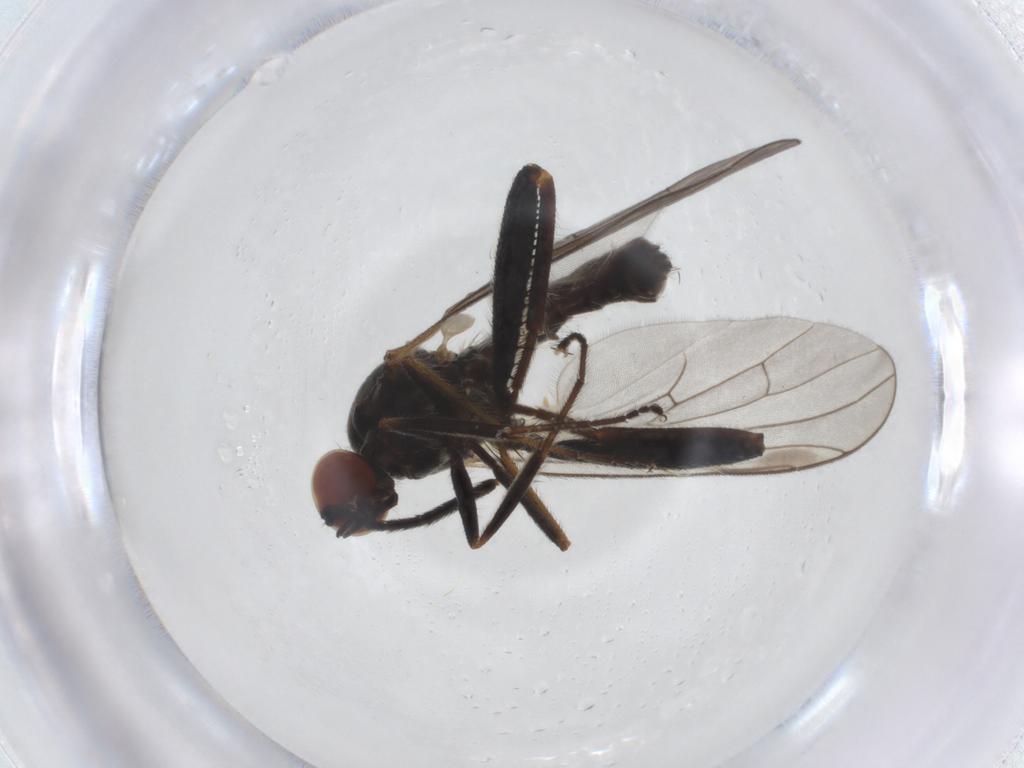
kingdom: Animalia
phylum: Arthropoda
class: Insecta
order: Diptera
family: Hybotidae
